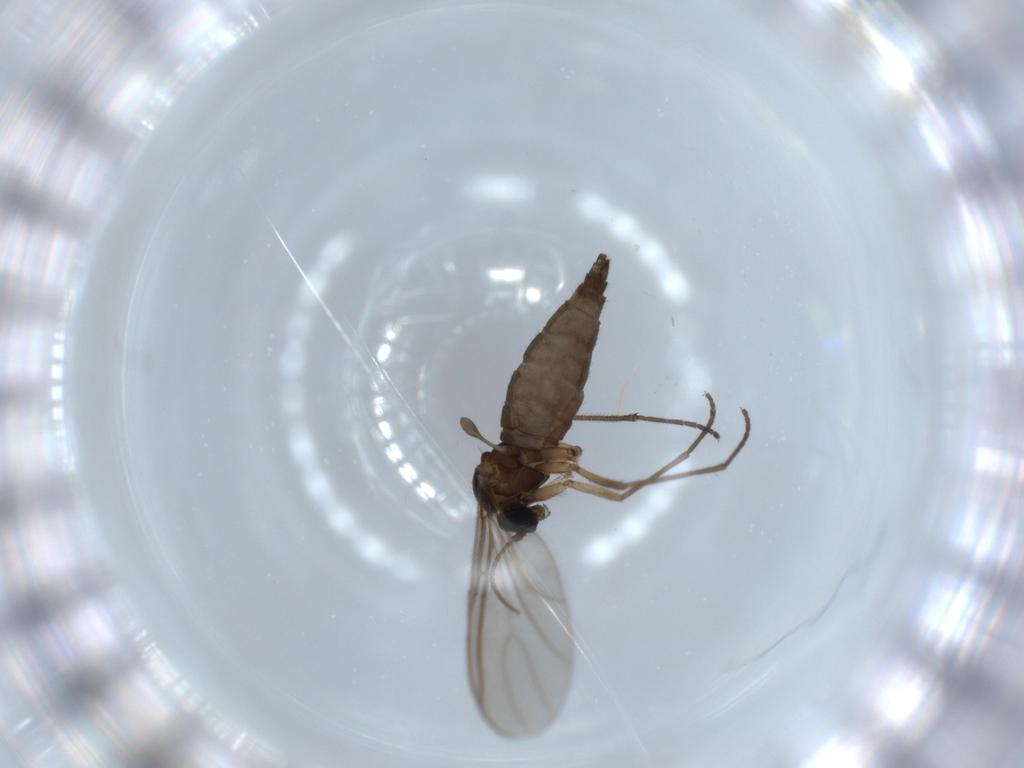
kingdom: Animalia
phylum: Arthropoda
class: Insecta
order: Diptera
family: Sciaridae
